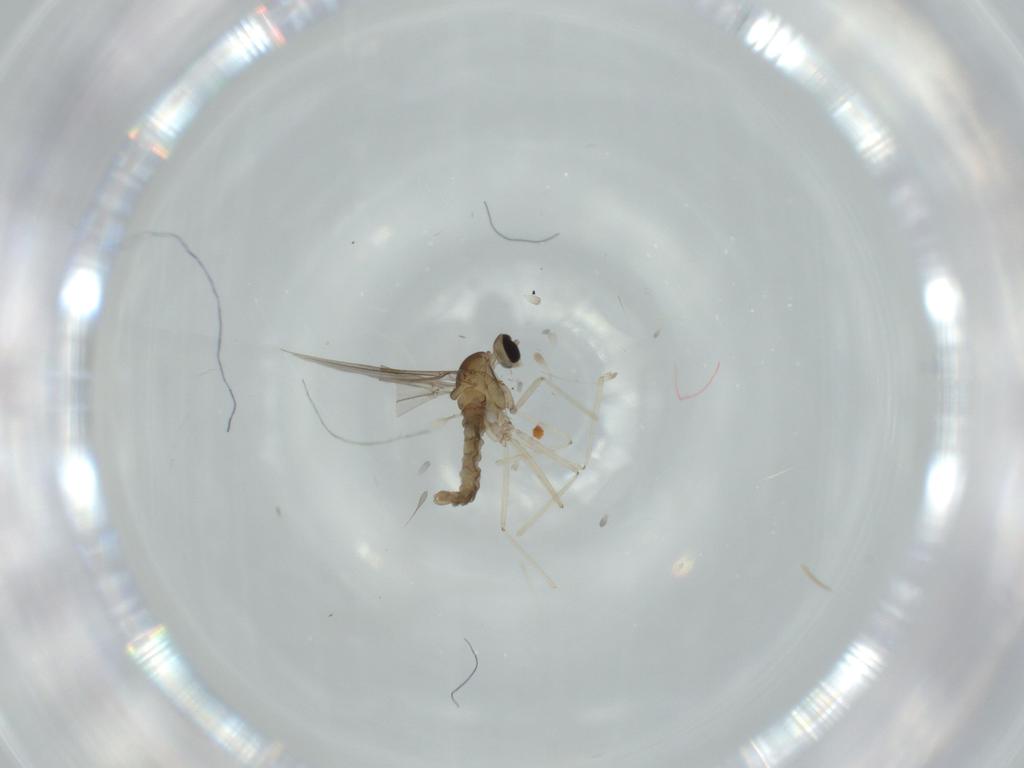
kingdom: Animalia
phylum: Arthropoda
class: Insecta
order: Diptera
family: Cecidomyiidae
